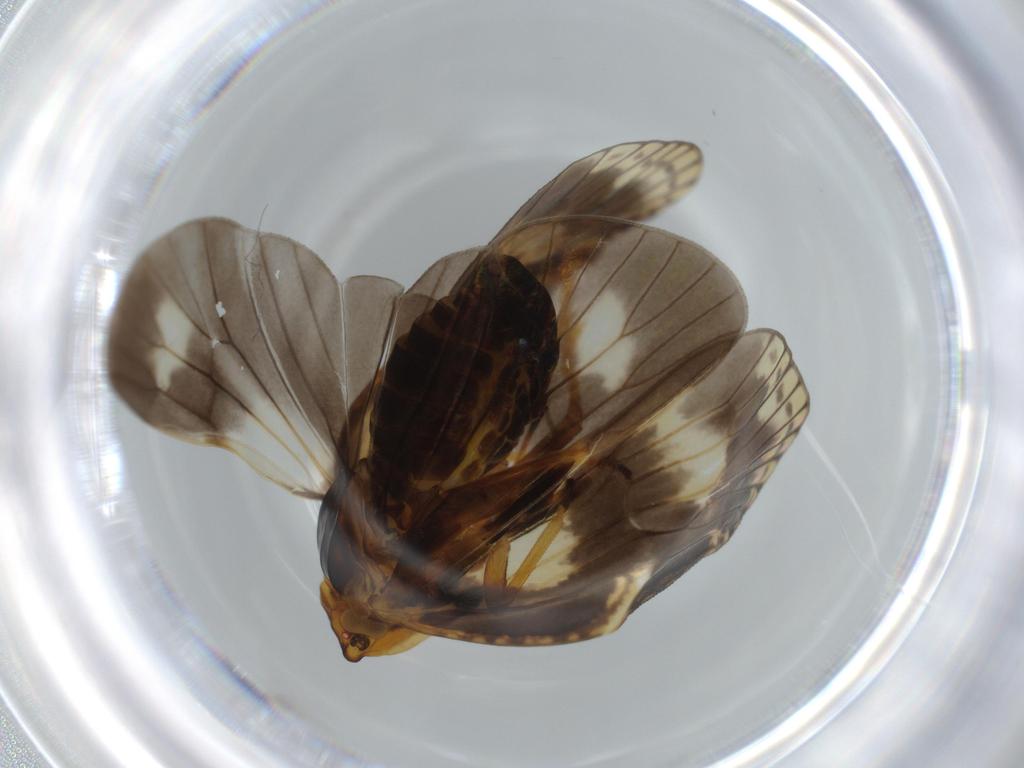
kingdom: Animalia
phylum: Arthropoda
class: Insecta
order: Hemiptera
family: Cixiidae
